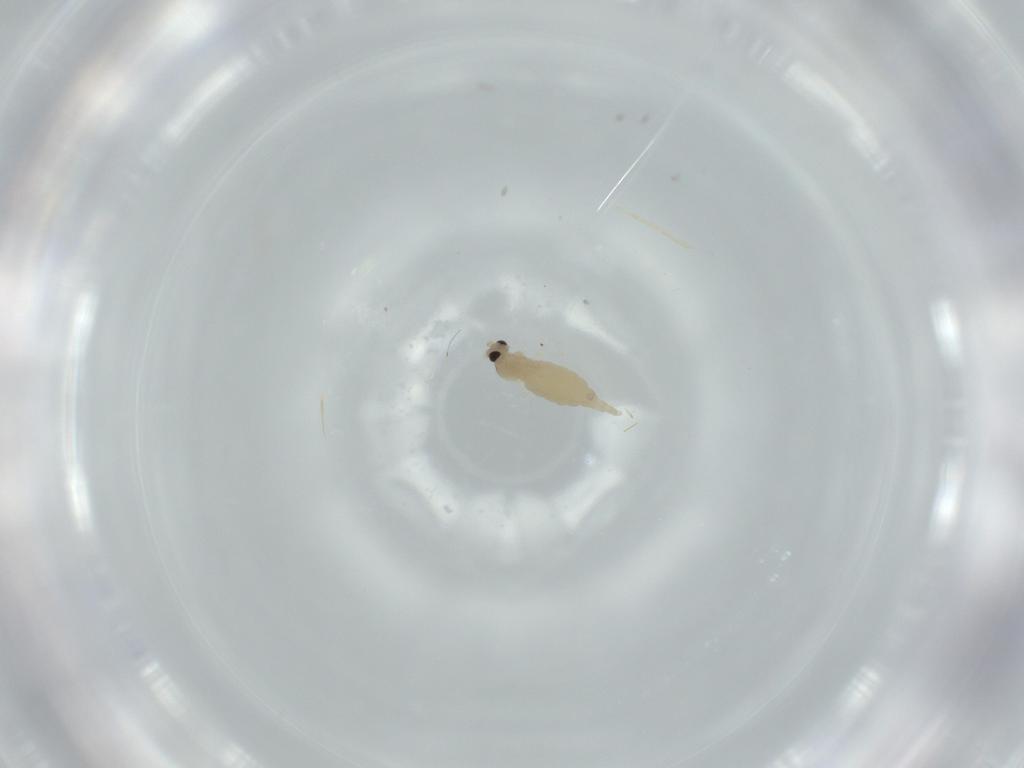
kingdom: Animalia
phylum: Arthropoda
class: Insecta
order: Diptera
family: Cecidomyiidae
